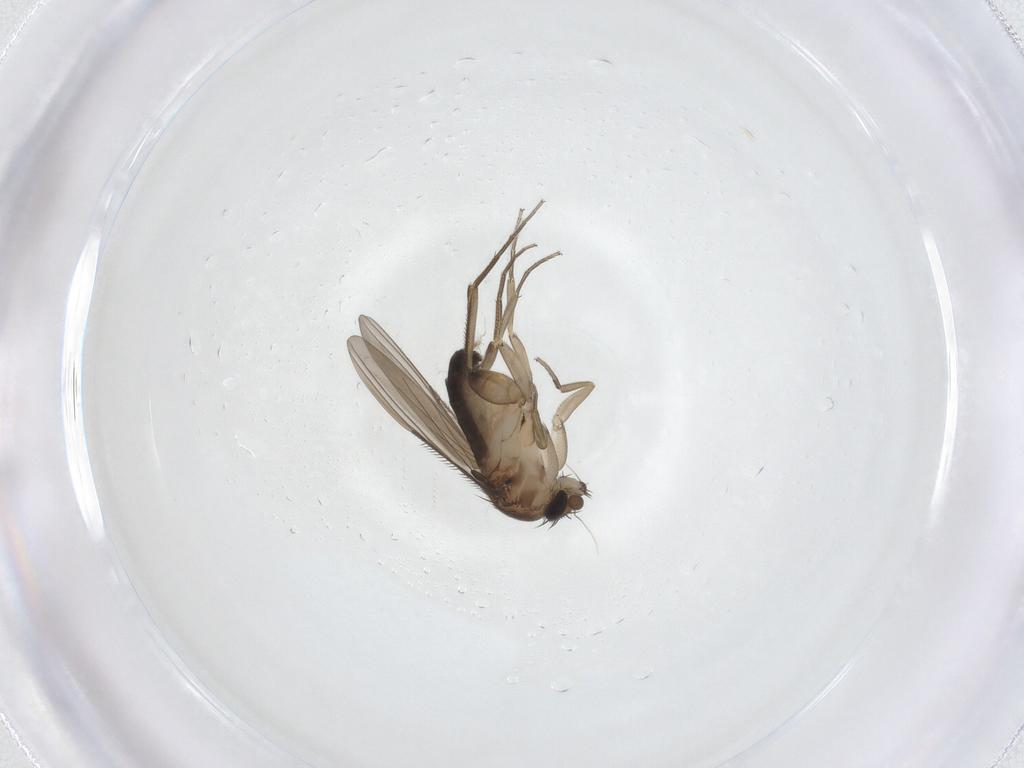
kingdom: Animalia
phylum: Arthropoda
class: Insecta
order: Diptera
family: Phoridae
